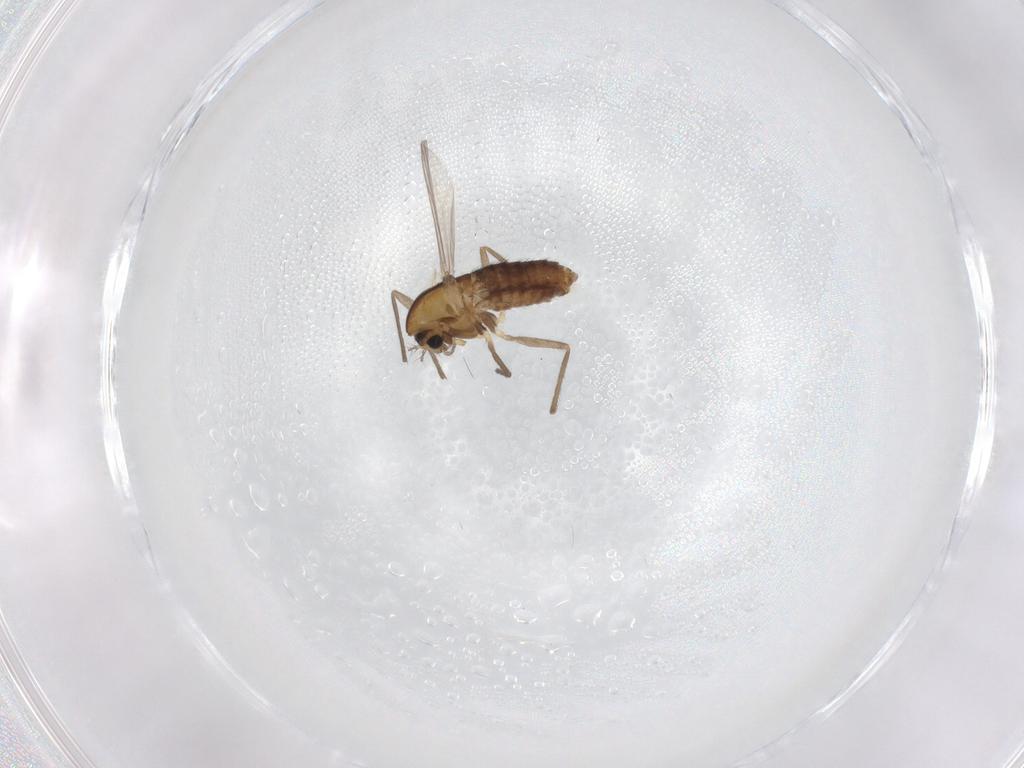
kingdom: Animalia
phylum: Arthropoda
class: Insecta
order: Diptera
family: Chironomidae
